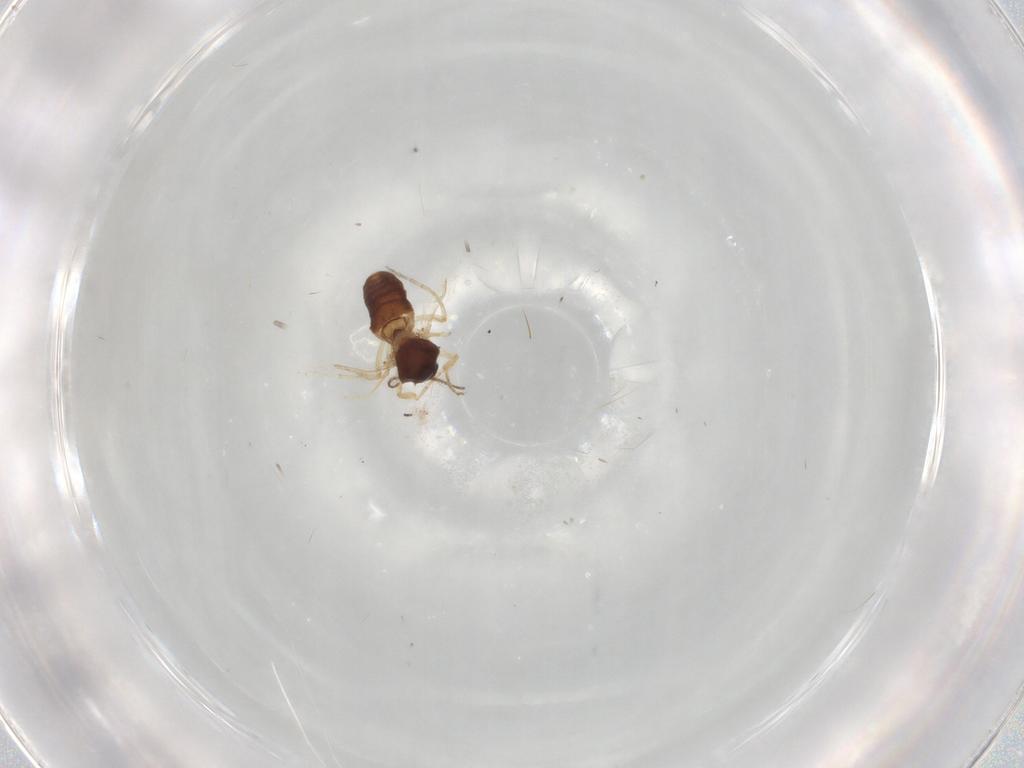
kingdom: Animalia
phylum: Arthropoda
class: Insecta
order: Diptera
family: Ceratopogonidae
